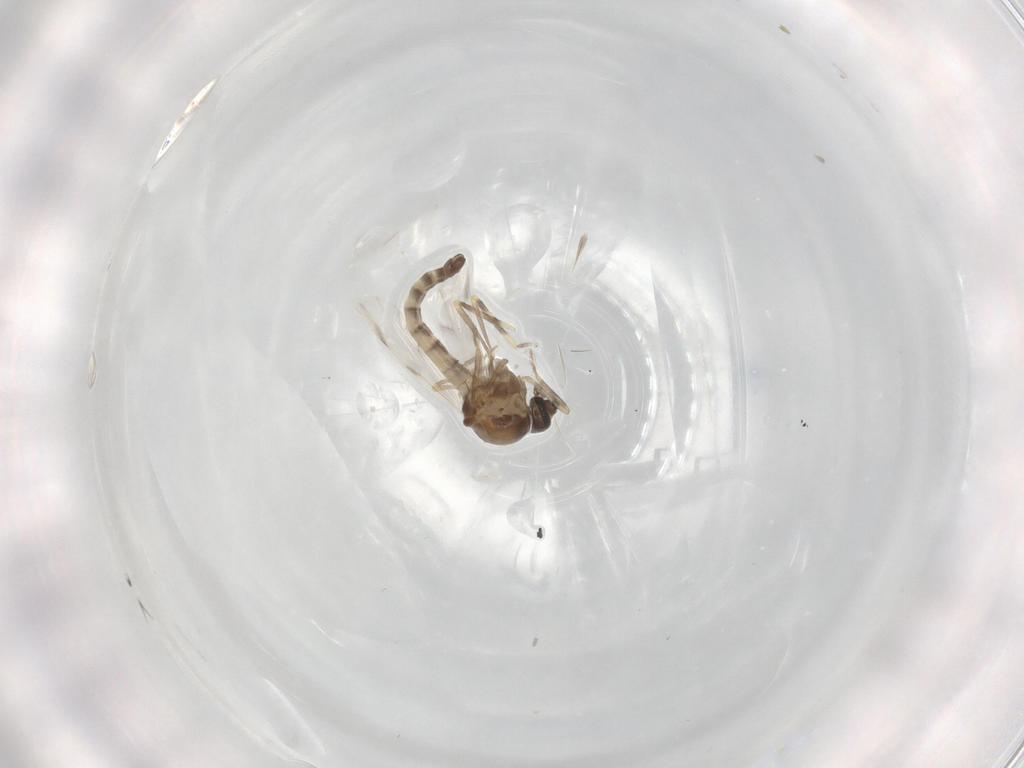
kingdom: Animalia
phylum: Arthropoda
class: Insecta
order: Diptera
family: Ceratopogonidae
